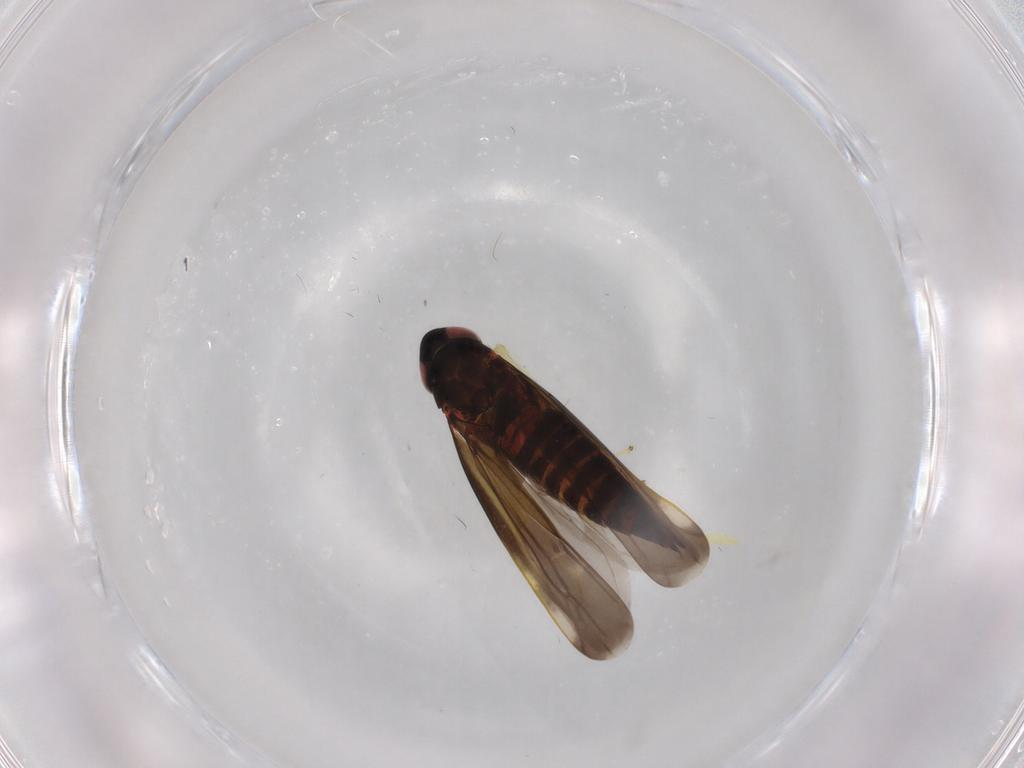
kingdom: Animalia
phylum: Arthropoda
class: Insecta
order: Hemiptera
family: Cicadellidae
